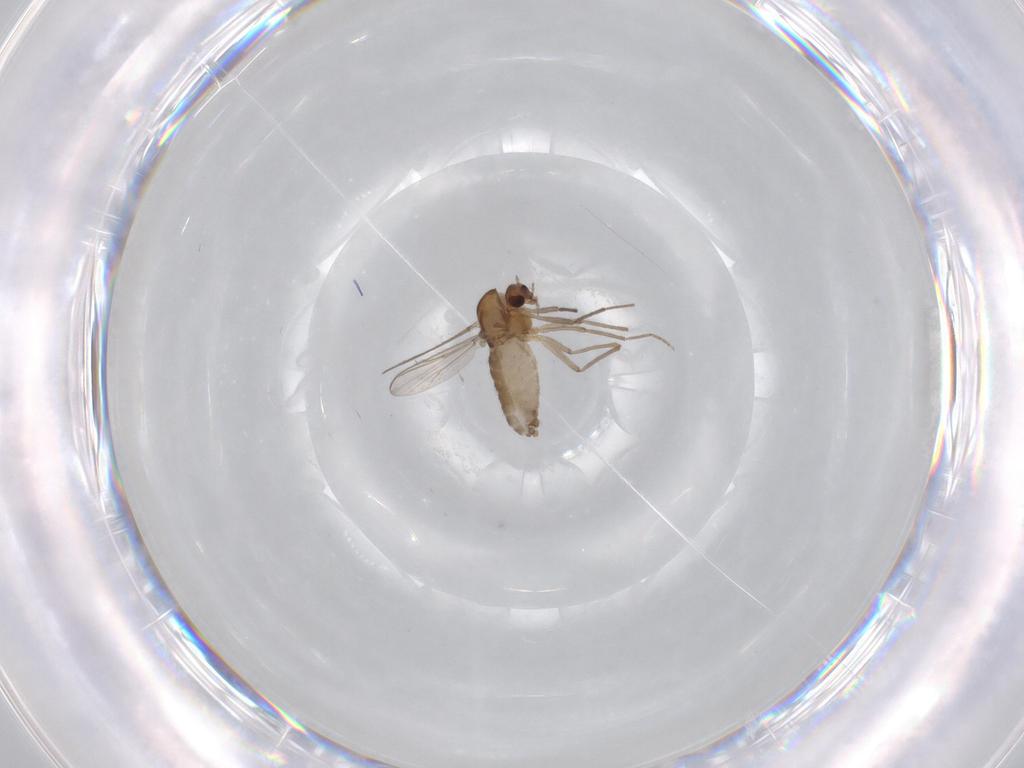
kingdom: Animalia
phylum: Arthropoda
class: Insecta
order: Diptera
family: Chironomidae
